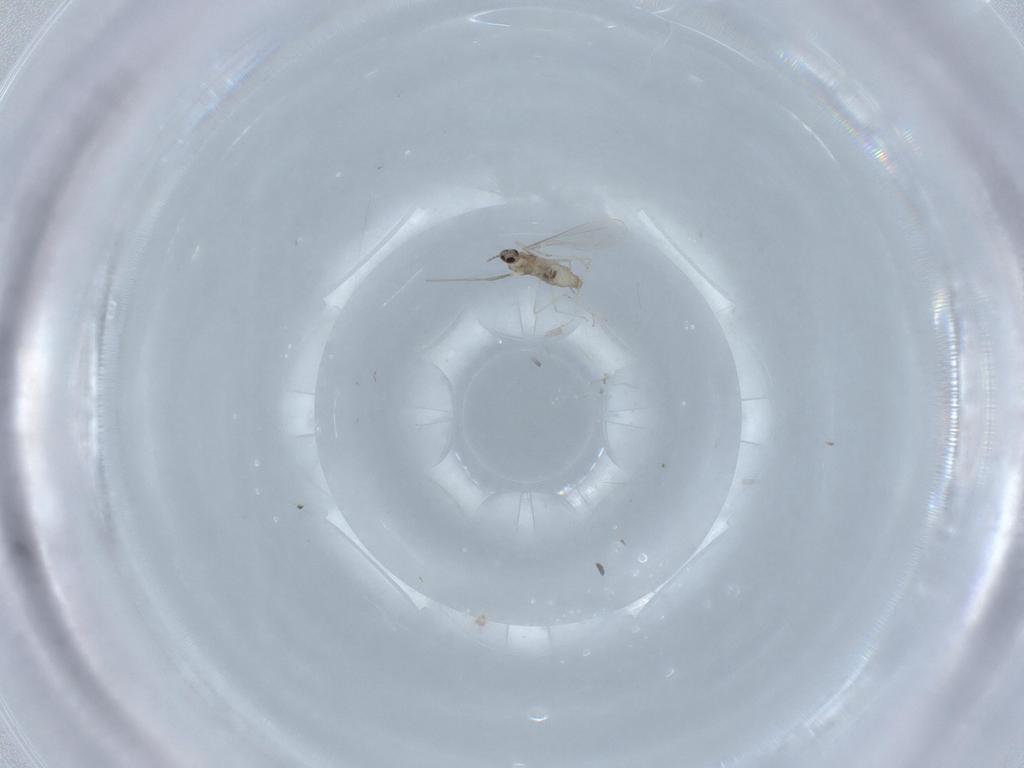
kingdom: Animalia
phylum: Arthropoda
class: Insecta
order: Diptera
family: Cecidomyiidae
